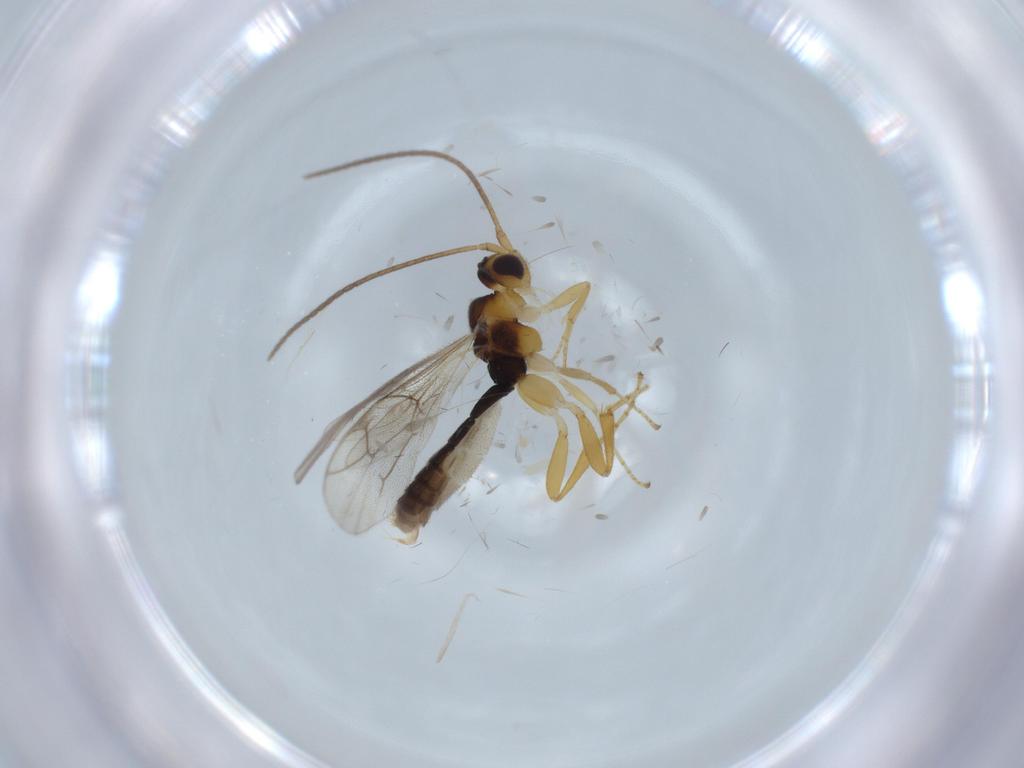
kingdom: Animalia
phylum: Arthropoda
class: Insecta
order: Hymenoptera
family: Ichneumonidae
